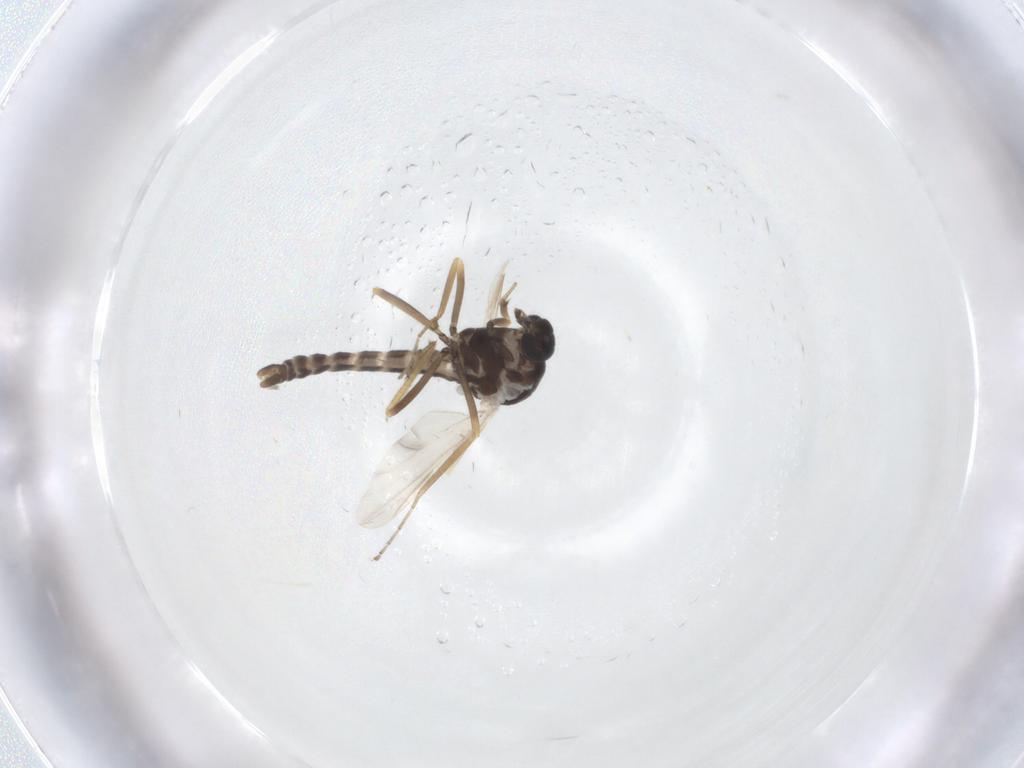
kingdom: Animalia
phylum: Arthropoda
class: Insecta
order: Diptera
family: Ceratopogonidae
